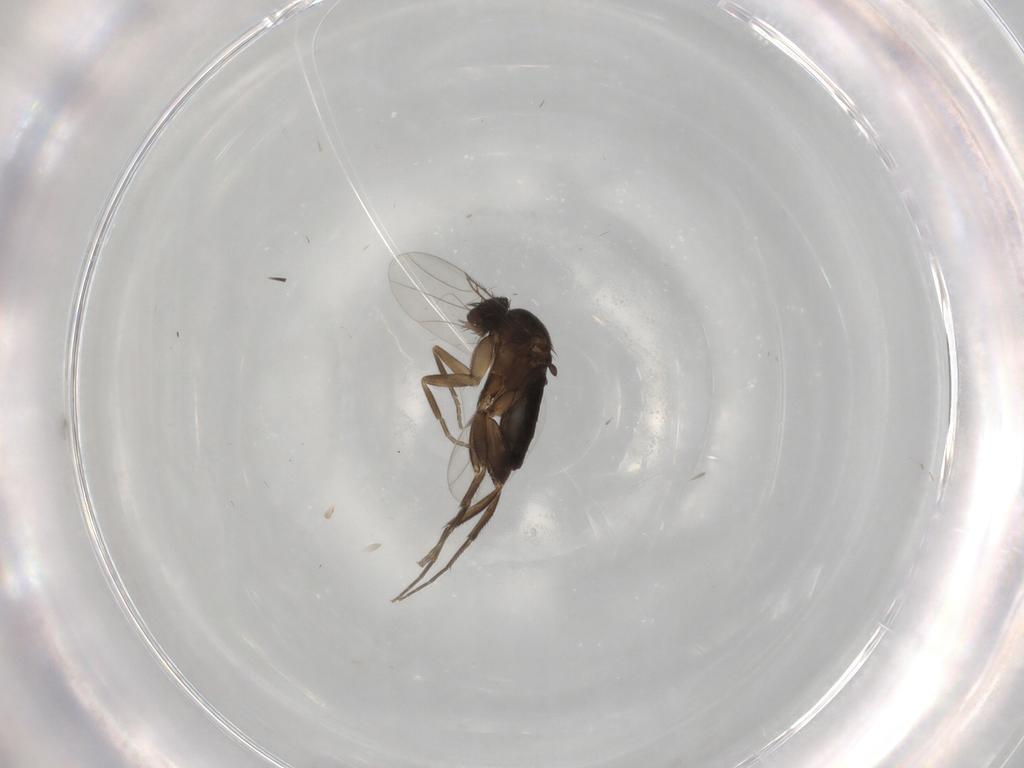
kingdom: Animalia
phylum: Arthropoda
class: Insecta
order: Diptera
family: Phoridae
